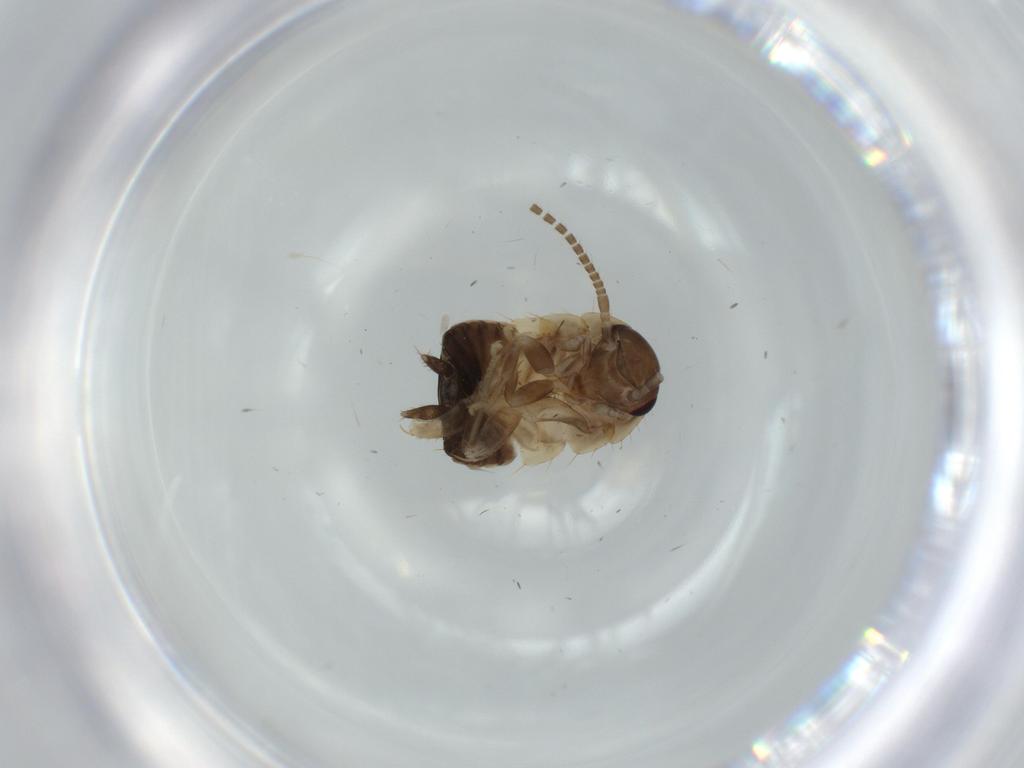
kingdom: Animalia
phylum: Arthropoda
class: Insecta
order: Blattodea
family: Ectobiidae
